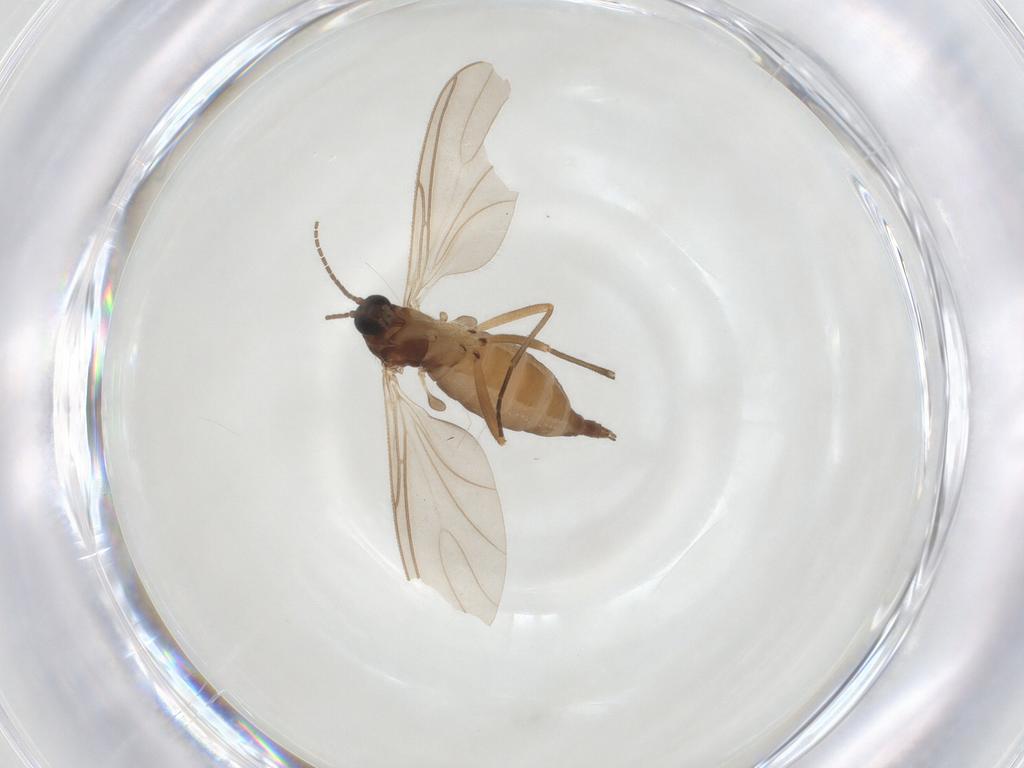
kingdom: Animalia
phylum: Arthropoda
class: Insecta
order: Diptera
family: Sciaridae
